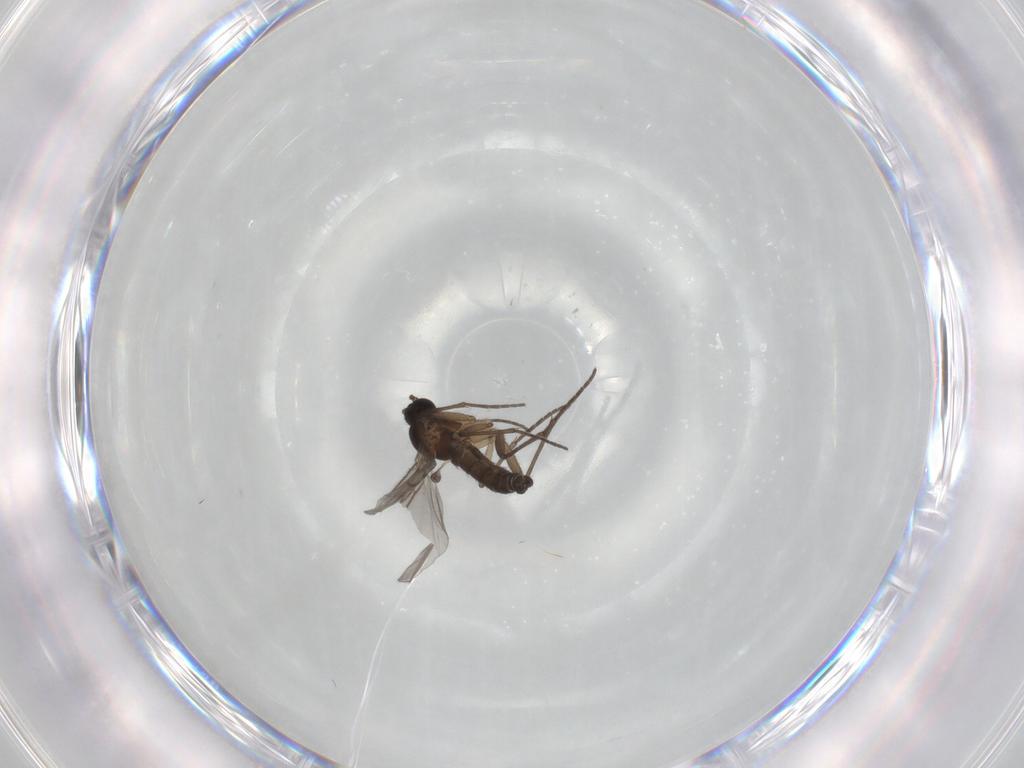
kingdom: Animalia
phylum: Arthropoda
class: Insecta
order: Diptera
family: Sciaridae
